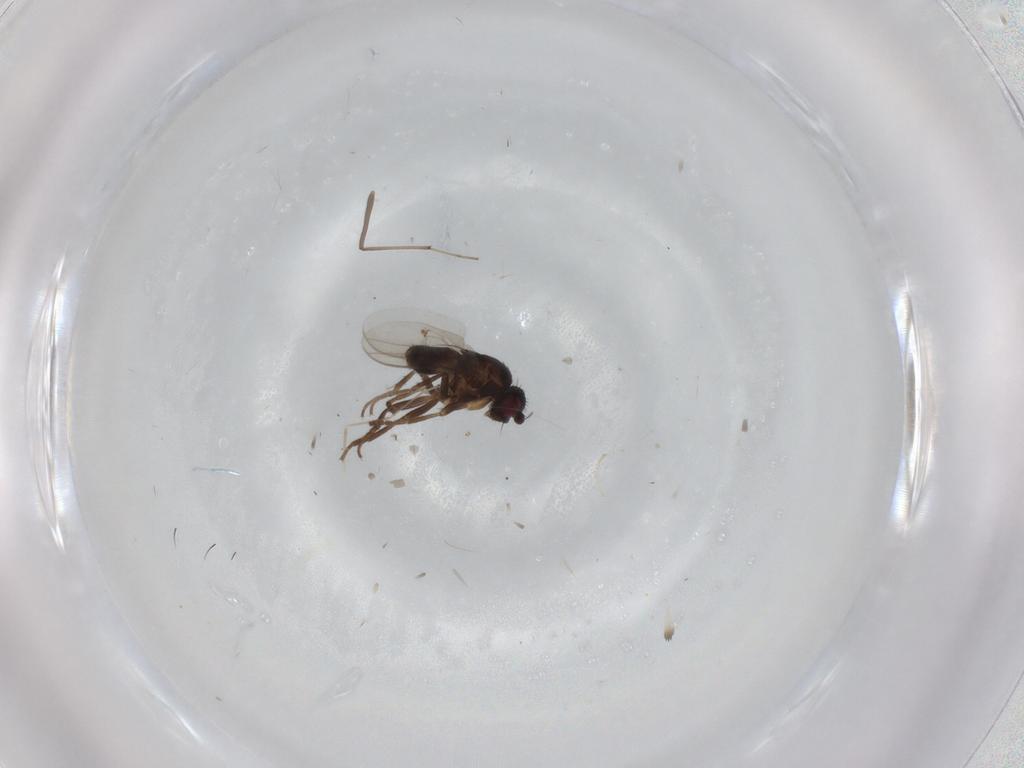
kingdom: Animalia
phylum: Arthropoda
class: Insecta
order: Diptera
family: Sphaeroceridae
